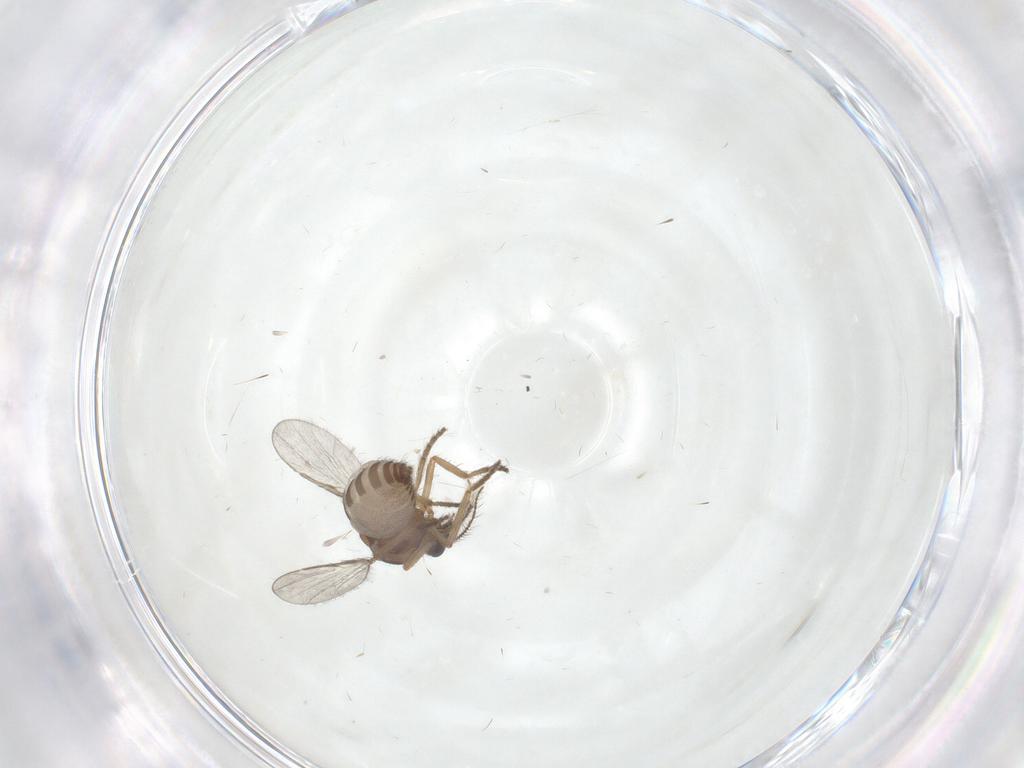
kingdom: Animalia
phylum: Arthropoda
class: Insecta
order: Diptera
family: Ceratopogonidae
